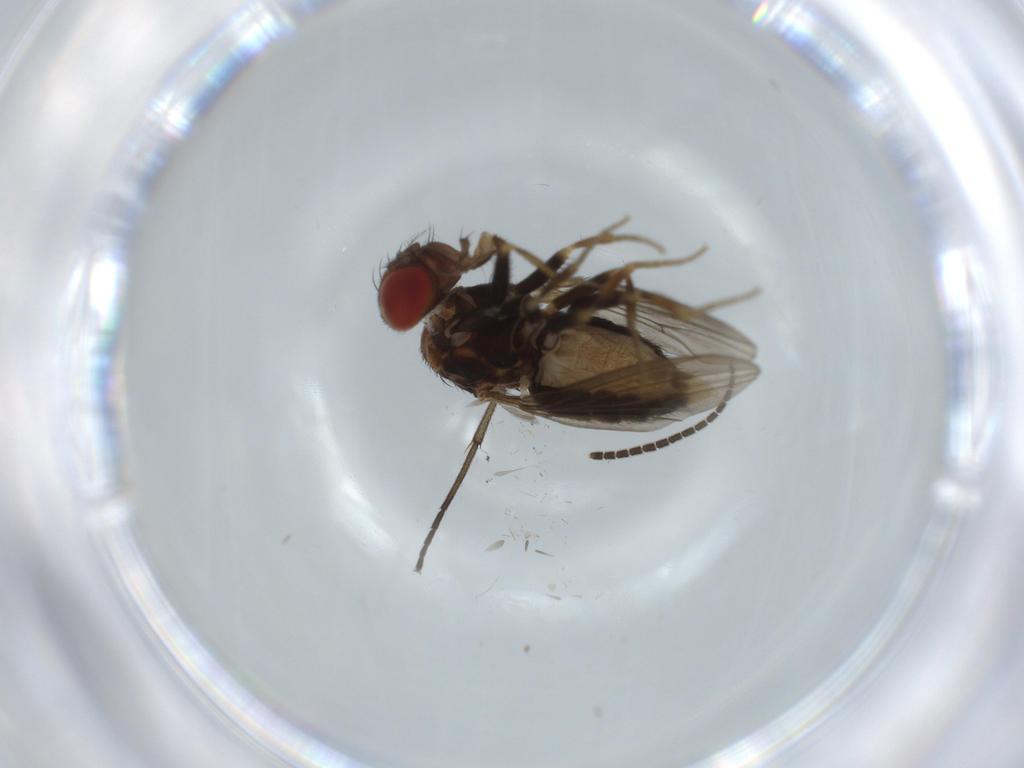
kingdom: Animalia
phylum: Arthropoda
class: Insecta
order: Diptera
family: Drosophilidae
